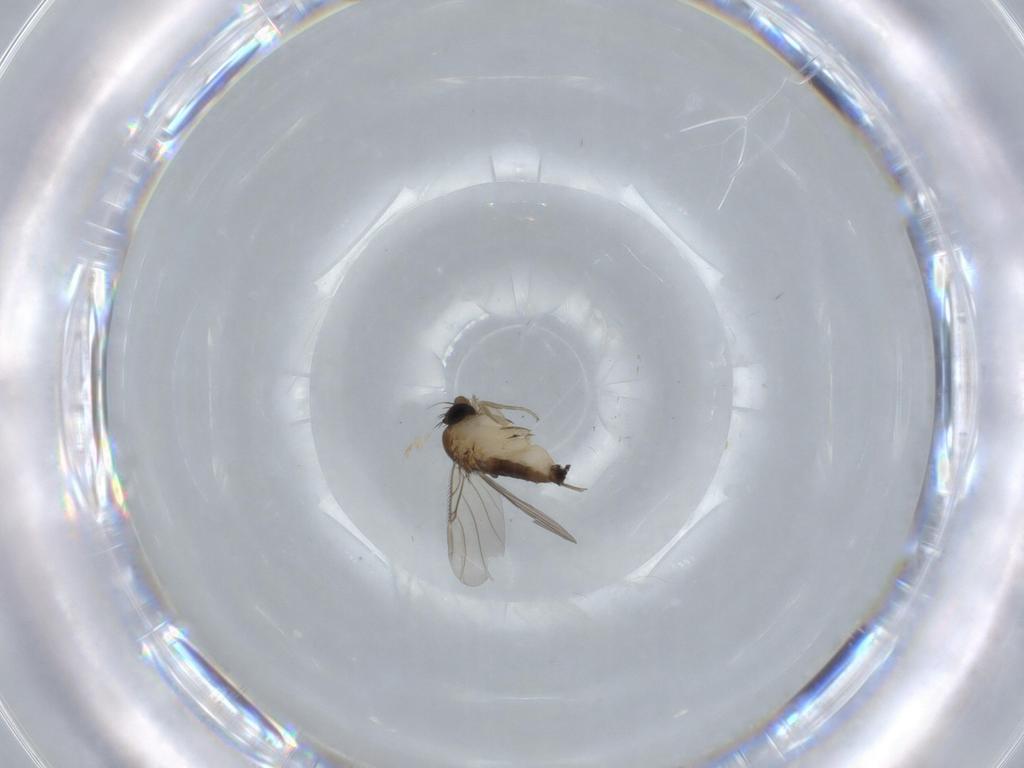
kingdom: Animalia
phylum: Arthropoda
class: Insecta
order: Diptera
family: Phoridae
